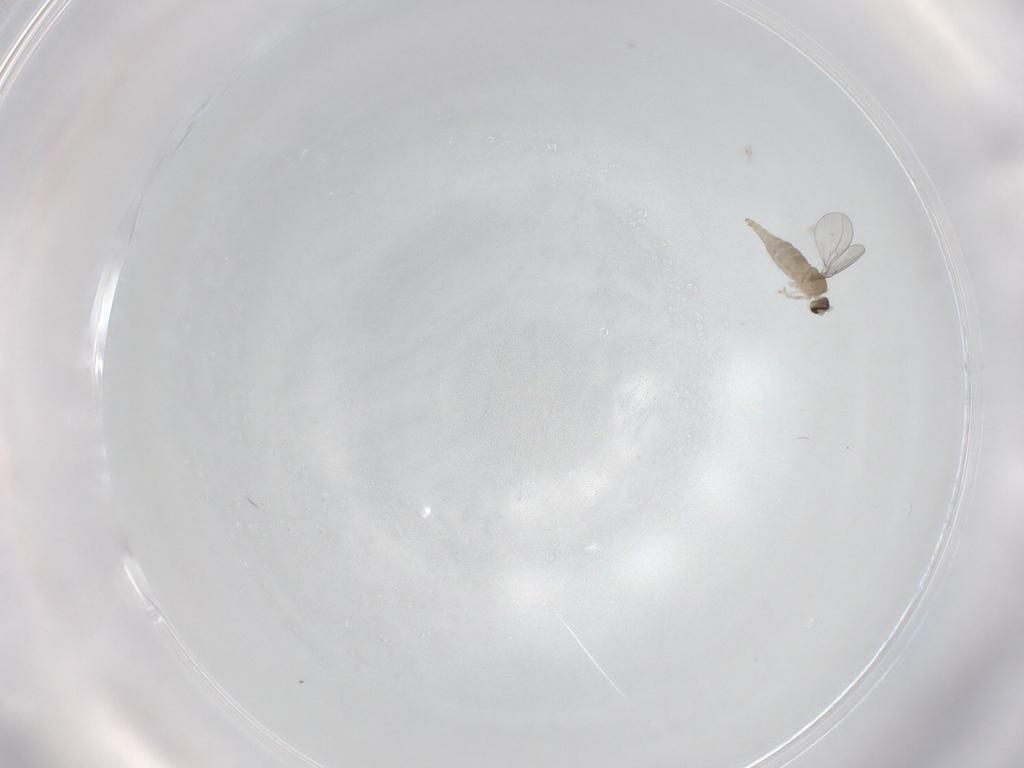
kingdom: Animalia
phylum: Arthropoda
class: Insecta
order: Diptera
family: Cecidomyiidae
